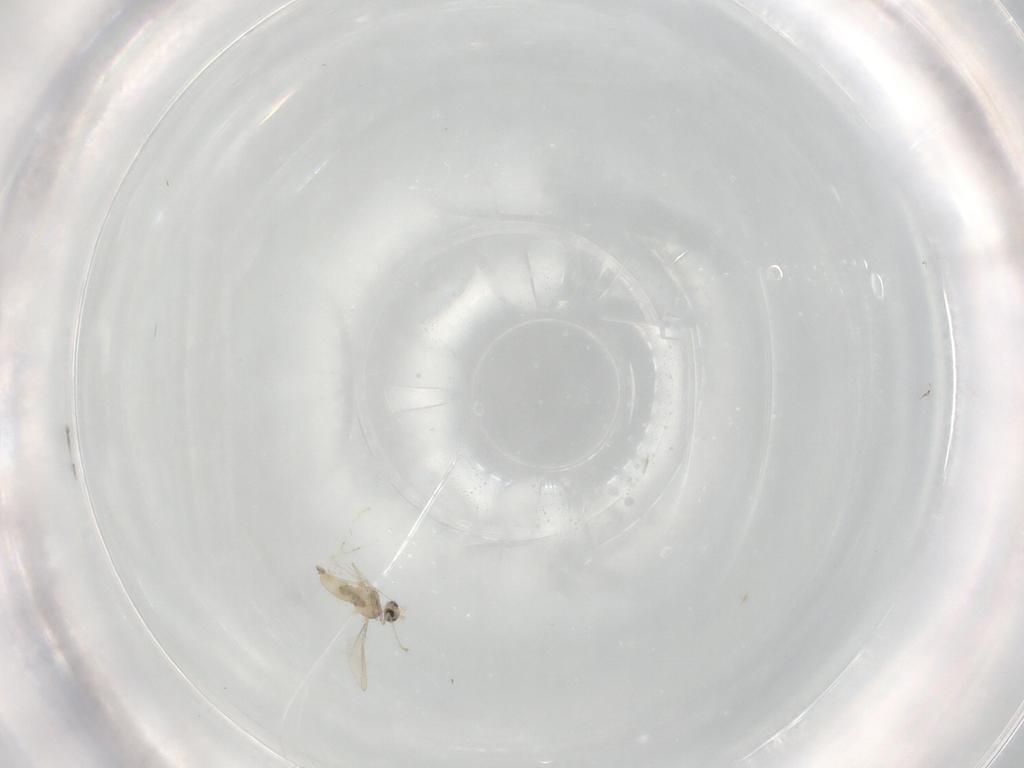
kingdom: Animalia
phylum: Arthropoda
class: Insecta
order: Diptera
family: Cecidomyiidae
